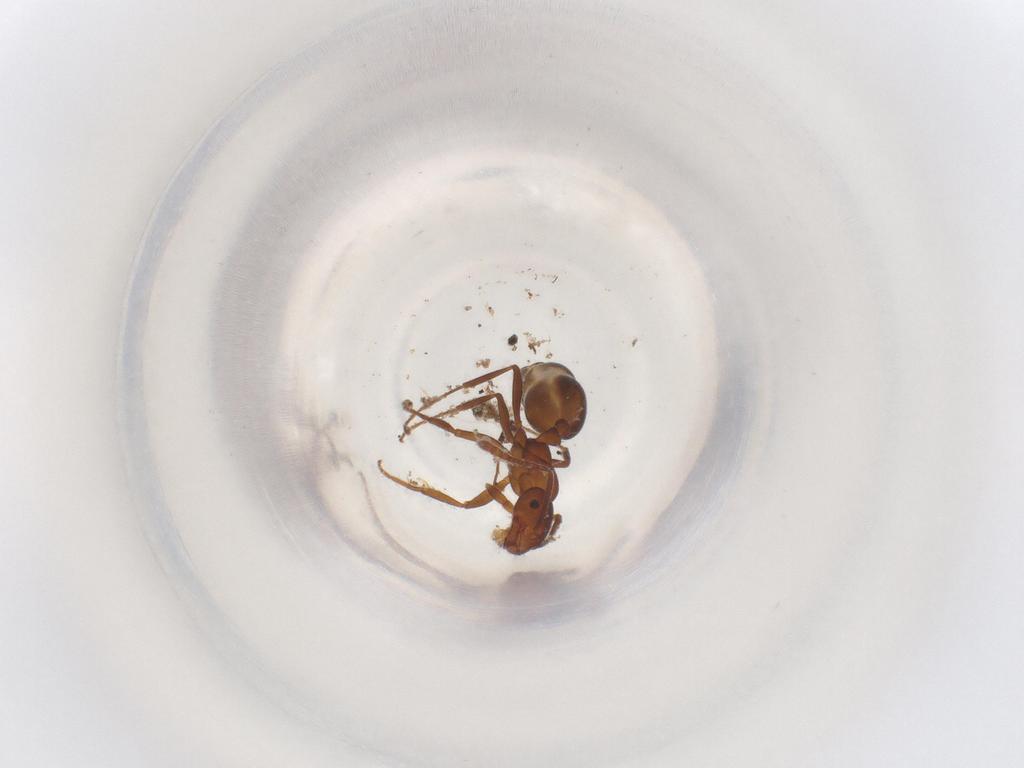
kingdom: Animalia
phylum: Arthropoda
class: Insecta
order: Hymenoptera
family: Formicidae
